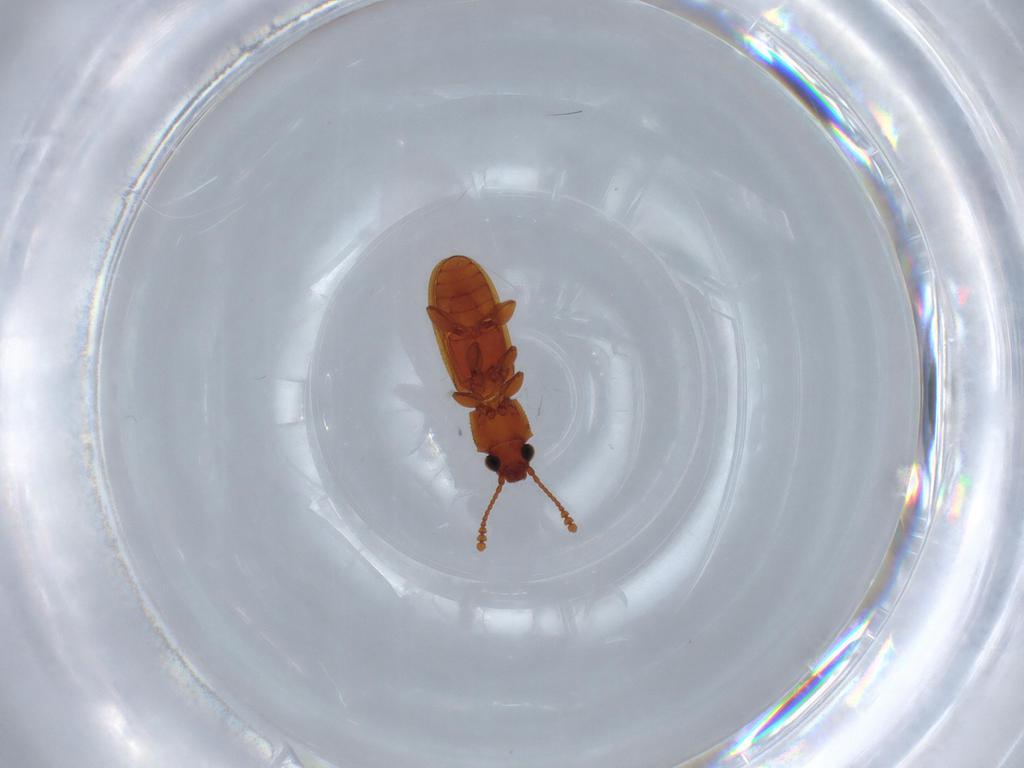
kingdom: Animalia
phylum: Arthropoda
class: Insecta
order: Coleoptera
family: Silvanidae
